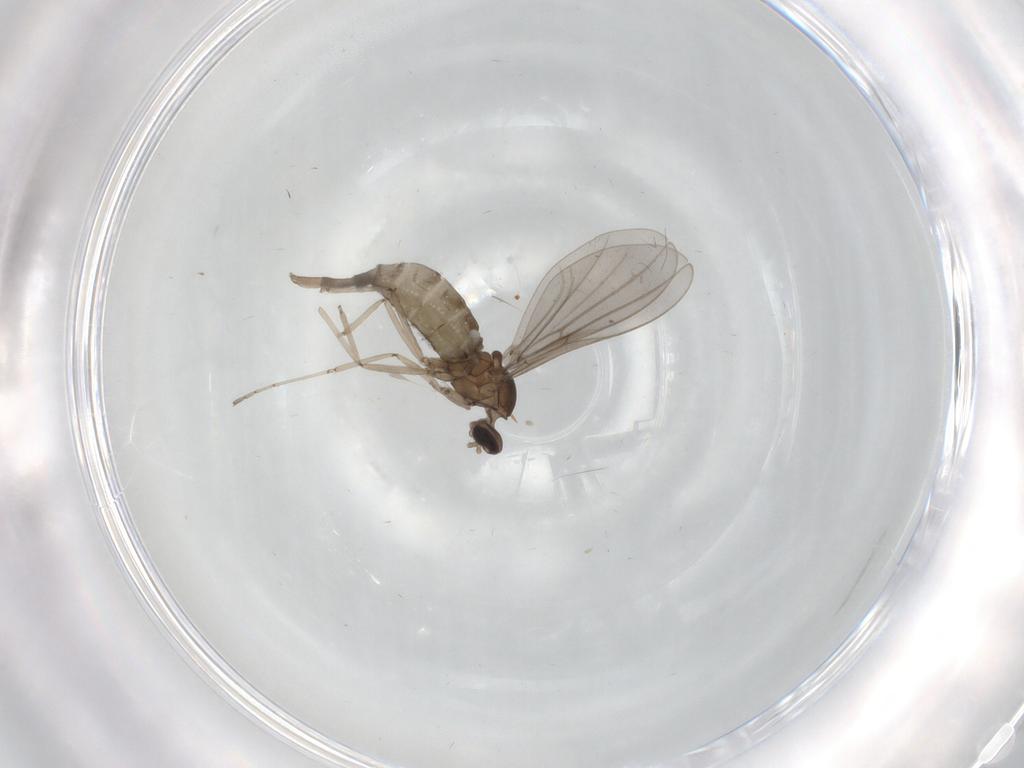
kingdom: Animalia
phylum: Arthropoda
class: Insecta
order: Diptera
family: Cecidomyiidae
